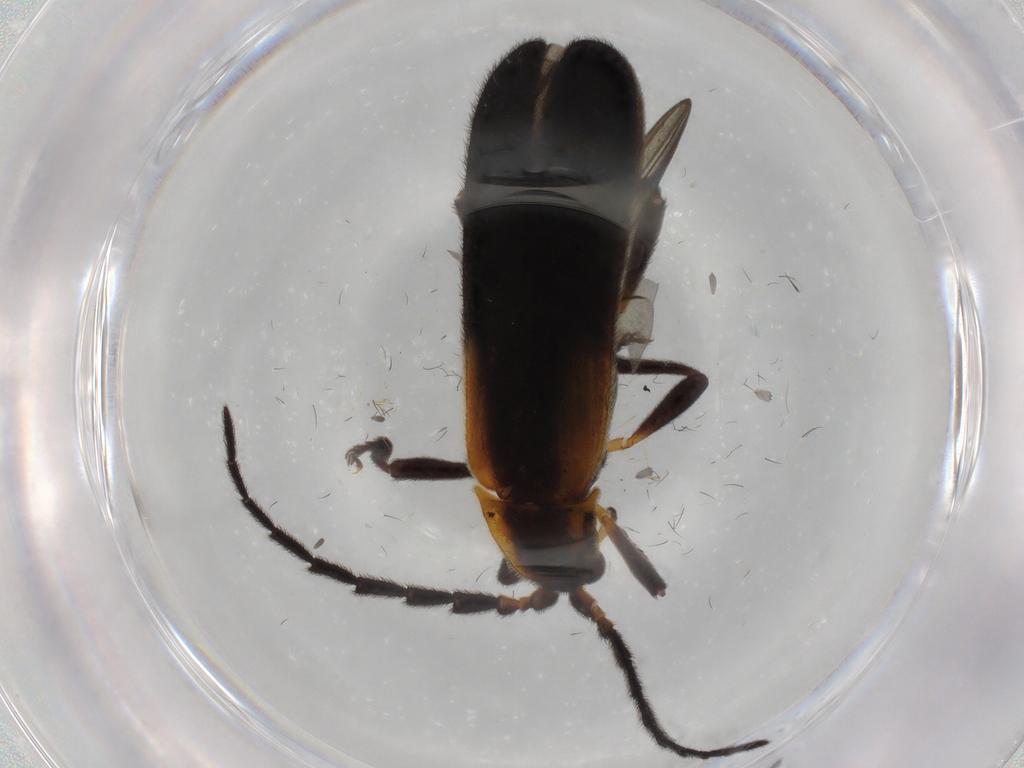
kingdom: Animalia
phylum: Arthropoda
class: Insecta
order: Coleoptera
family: Lycidae
